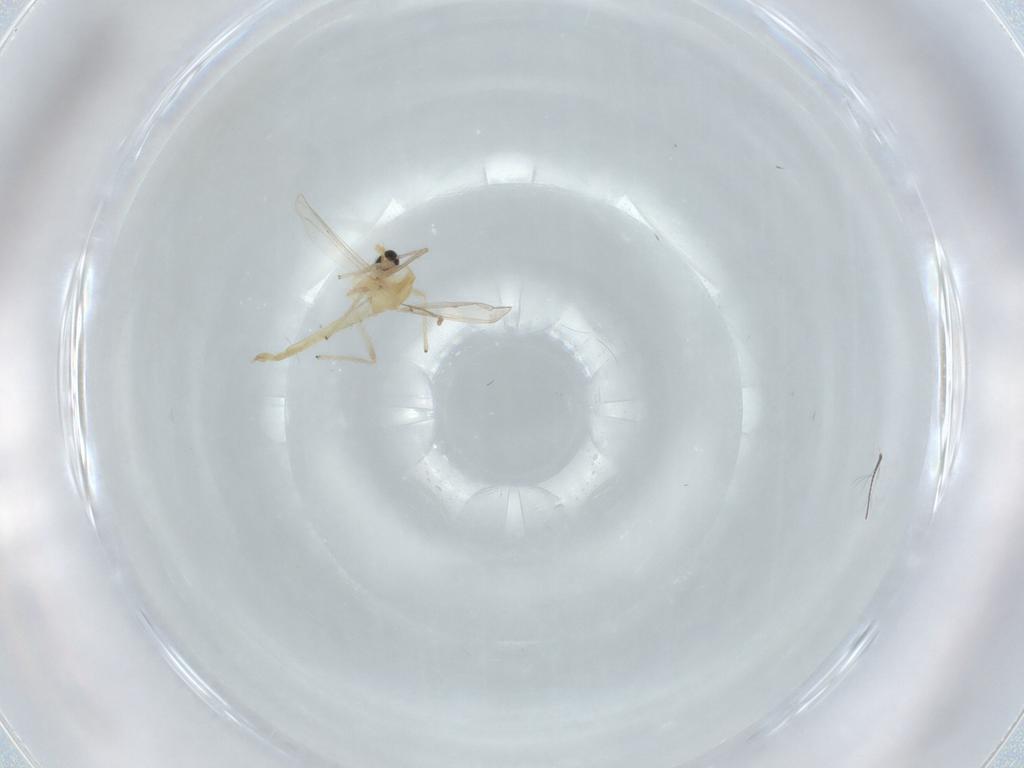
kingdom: Animalia
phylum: Arthropoda
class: Insecta
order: Diptera
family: Chironomidae
